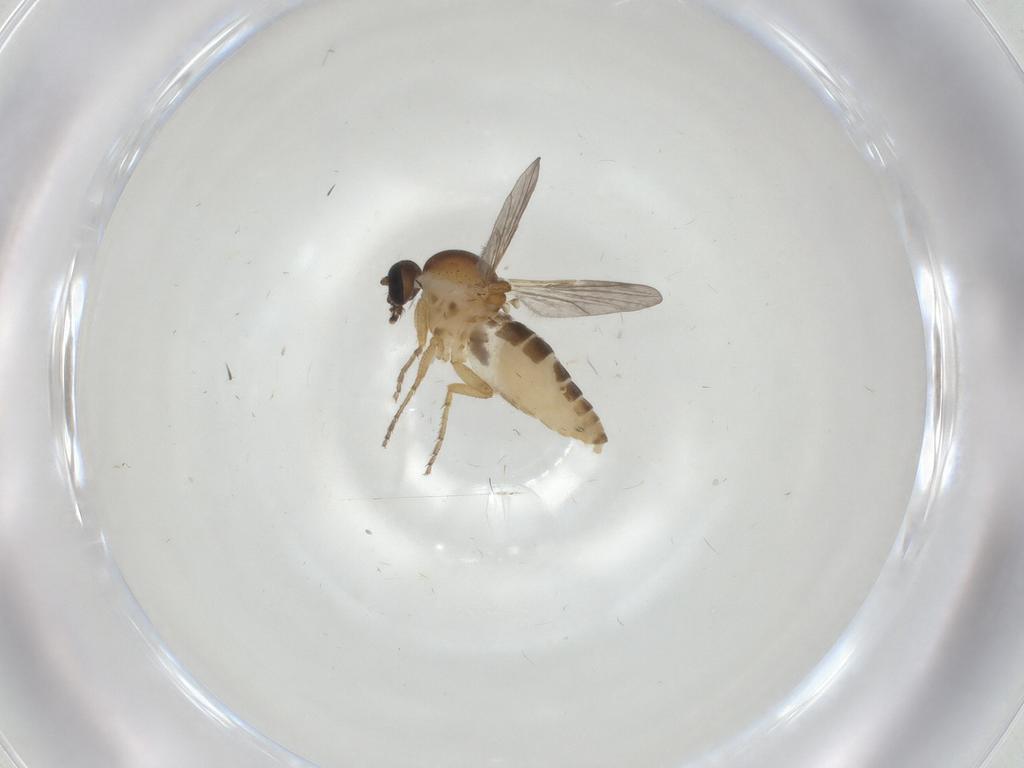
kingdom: Animalia
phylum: Arthropoda
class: Insecta
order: Diptera
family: Ceratopogonidae
